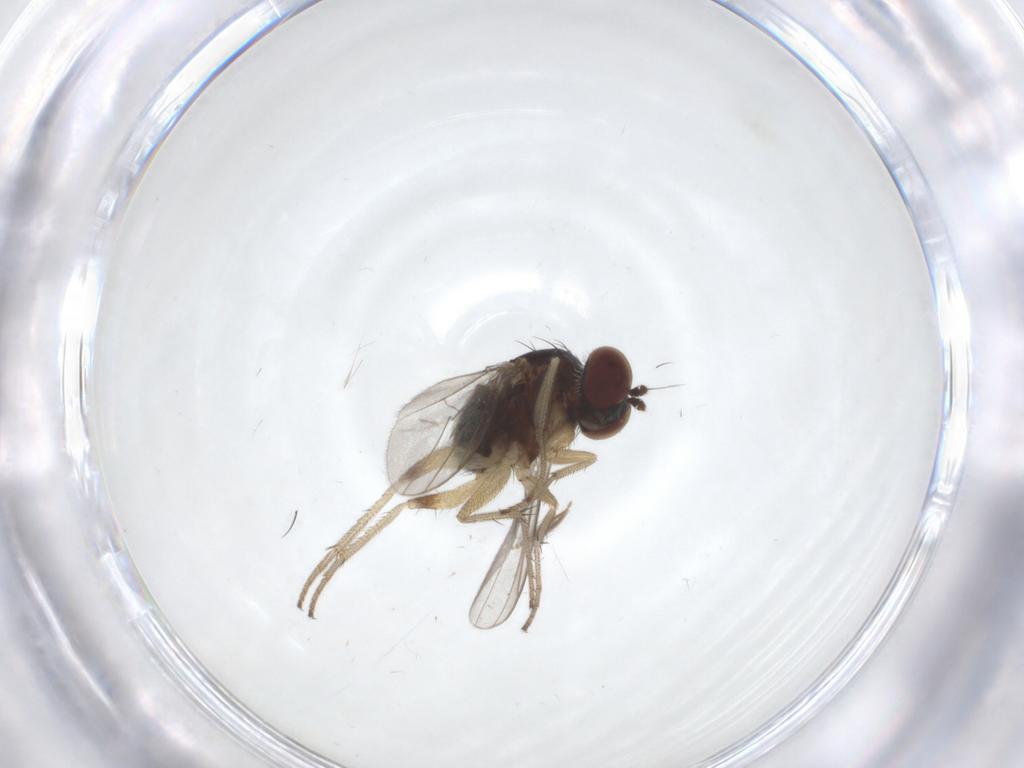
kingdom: Animalia
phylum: Arthropoda
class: Insecta
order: Diptera
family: Dolichopodidae
